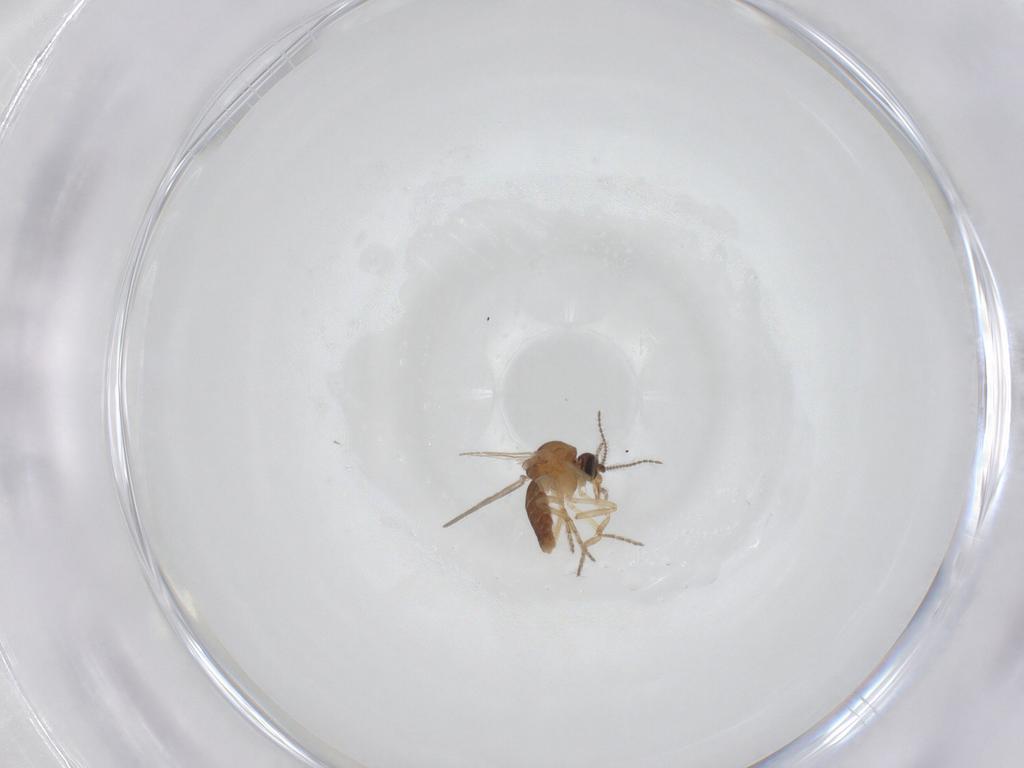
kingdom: Animalia
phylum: Arthropoda
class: Insecta
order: Diptera
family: Ceratopogonidae
